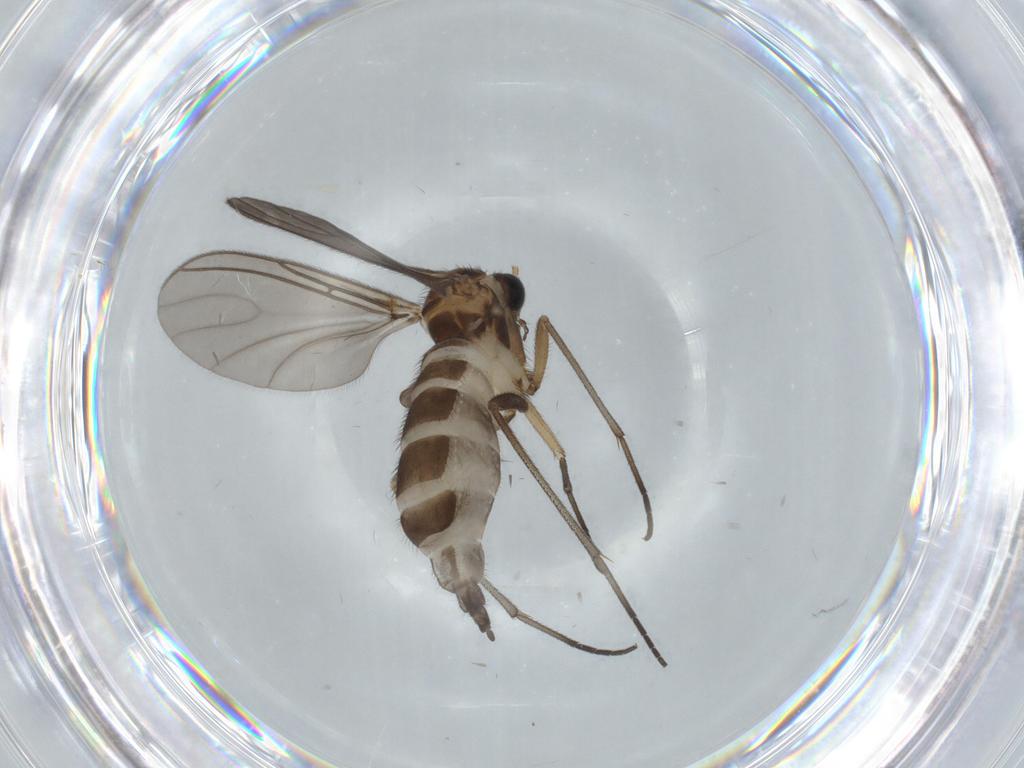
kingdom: Animalia
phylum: Arthropoda
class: Insecta
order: Diptera
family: Sciaridae
